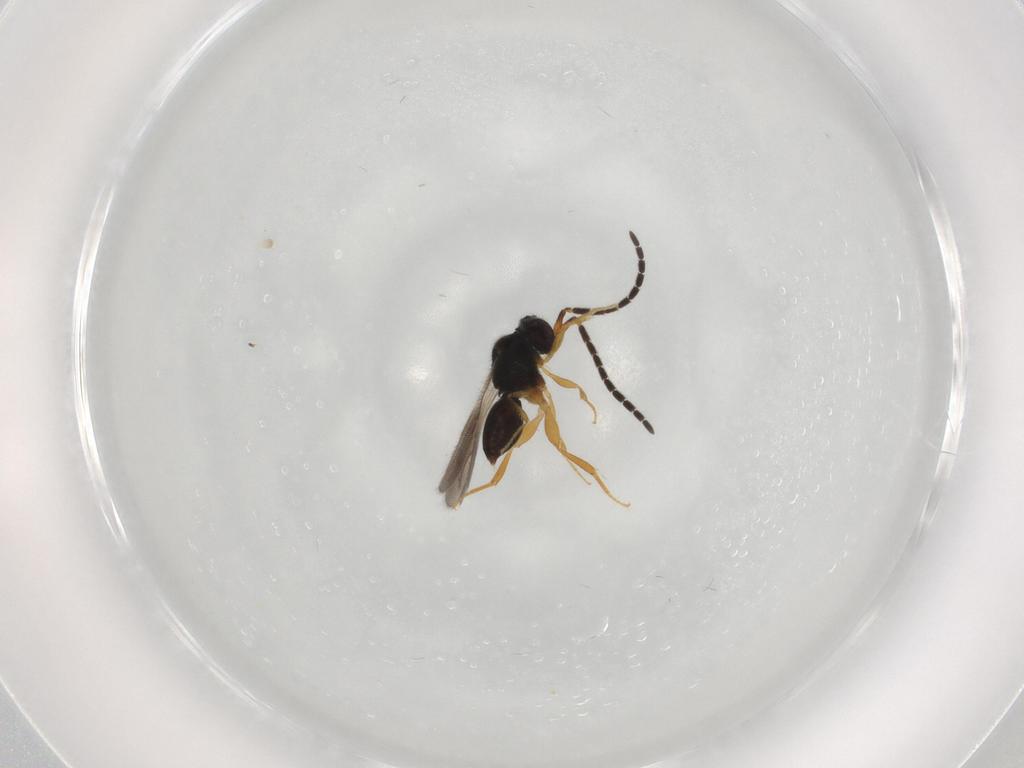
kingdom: Animalia
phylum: Arthropoda
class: Insecta
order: Hymenoptera
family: Ceraphronidae
